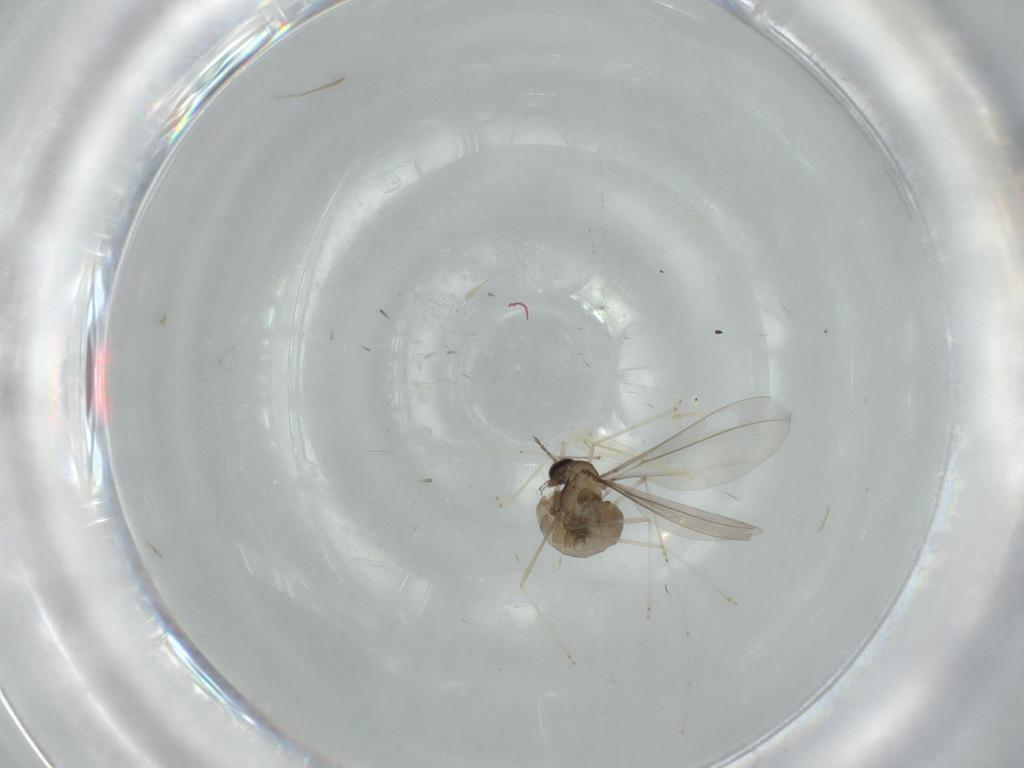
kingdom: Animalia
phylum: Arthropoda
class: Insecta
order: Diptera
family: Cecidomyiidae
